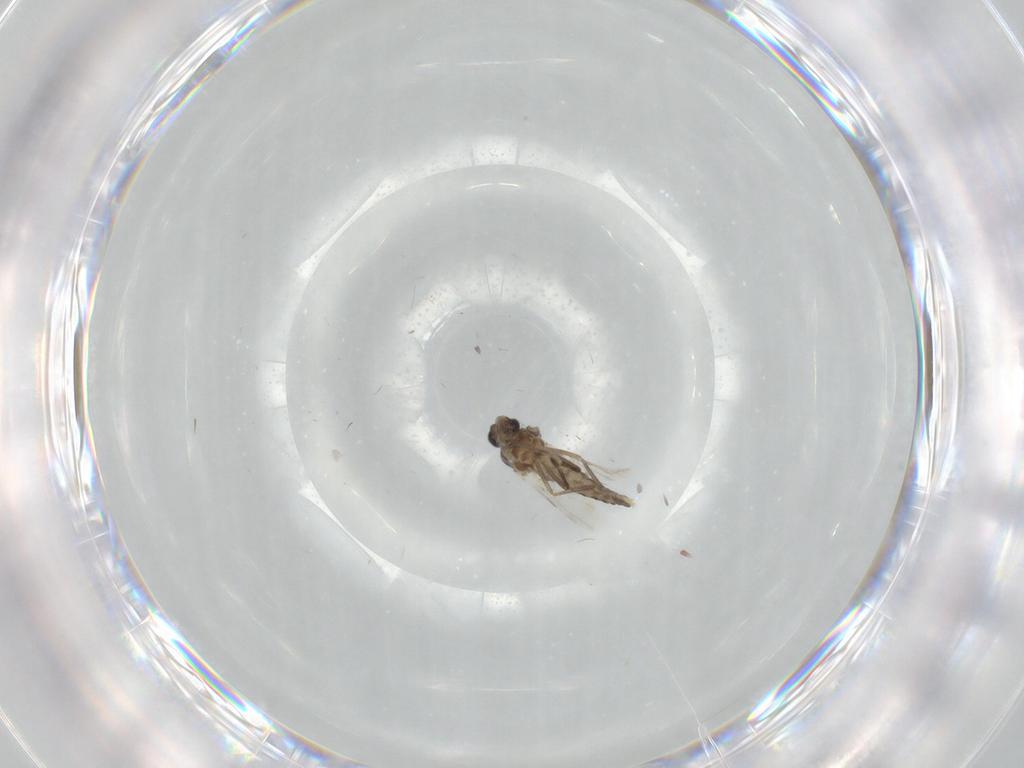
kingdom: Animalia
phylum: Arthropoda
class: Insecta
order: Diptera
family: Ceratopogonidae
